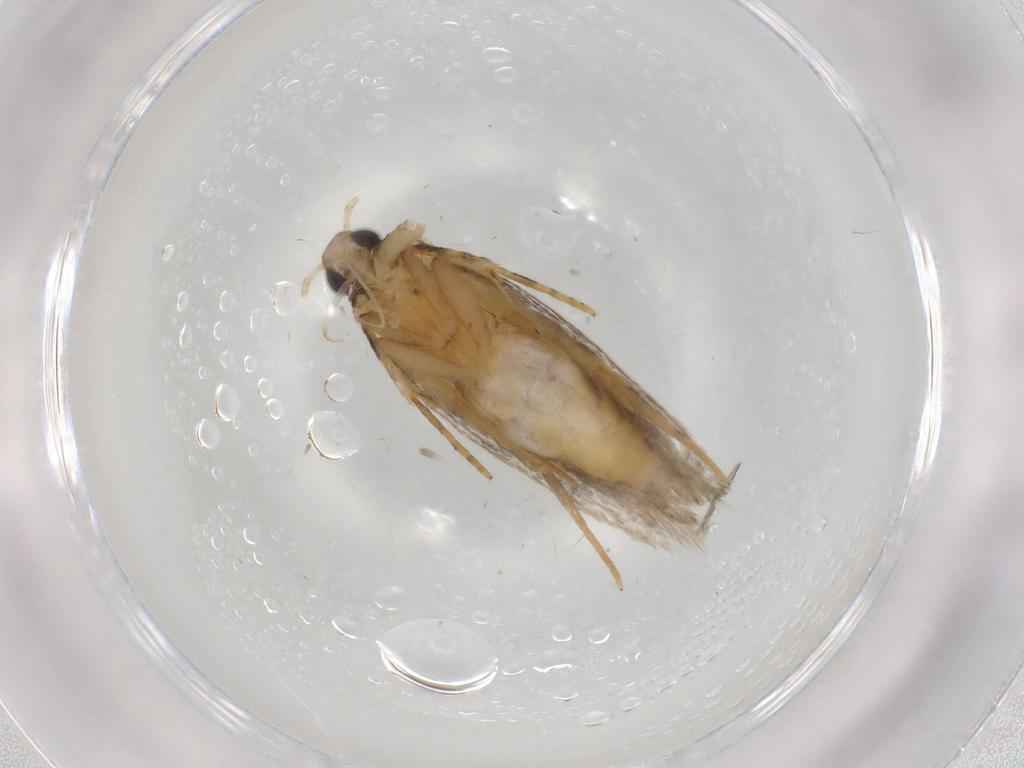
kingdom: Animalia
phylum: Arthropoda
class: Insecta
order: Lepidoptera
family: Autostichidae
